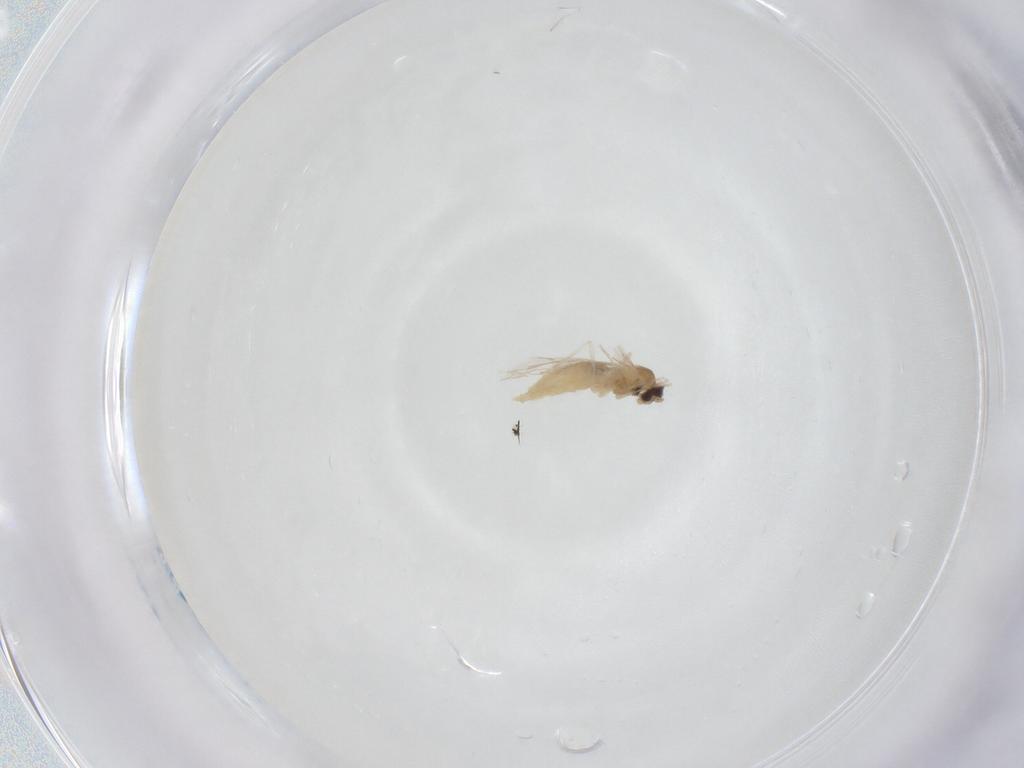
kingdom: Animalia
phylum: Arthropoda
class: Insecta
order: Diptera
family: Cecidomyiidae
